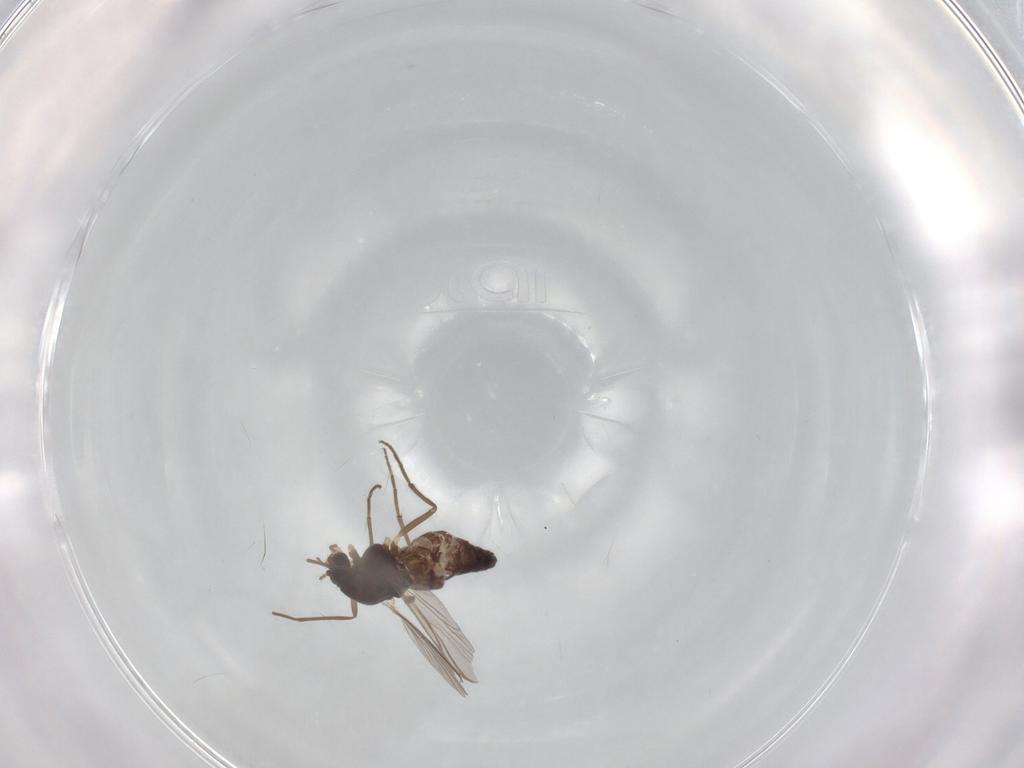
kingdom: Animalia
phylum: Arthropoda
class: Insecta
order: Diptera
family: Chironomidae
